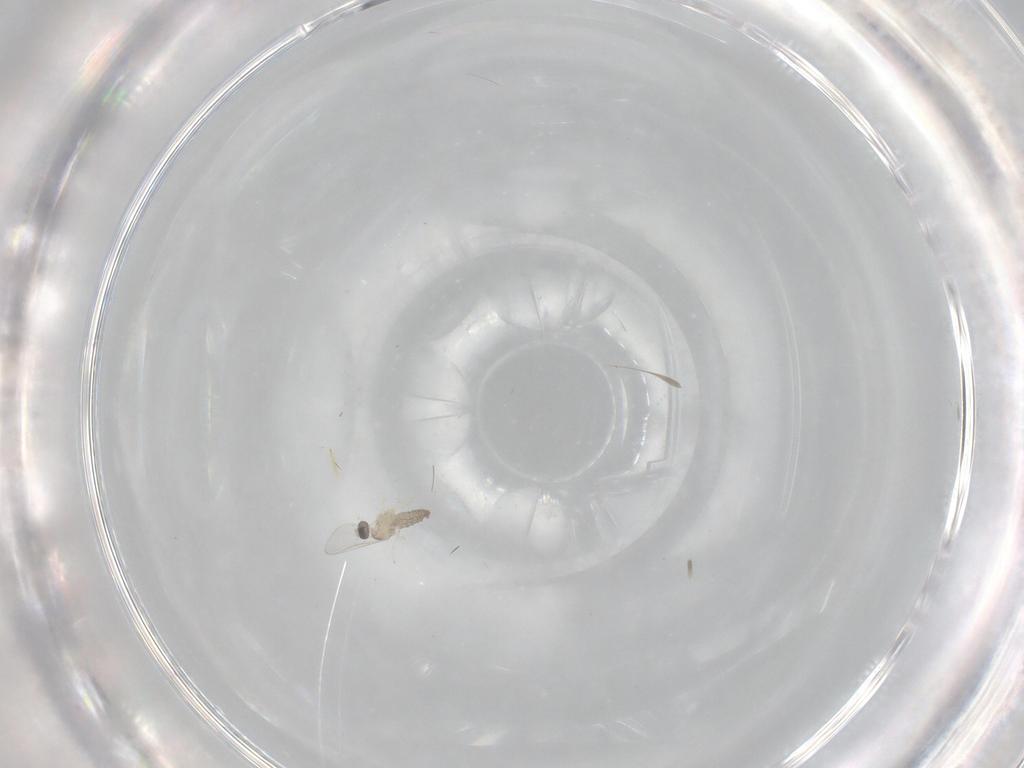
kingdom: Animalia
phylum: Arthropoda
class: Insecta
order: Diptera
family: Cecidomyiidae
